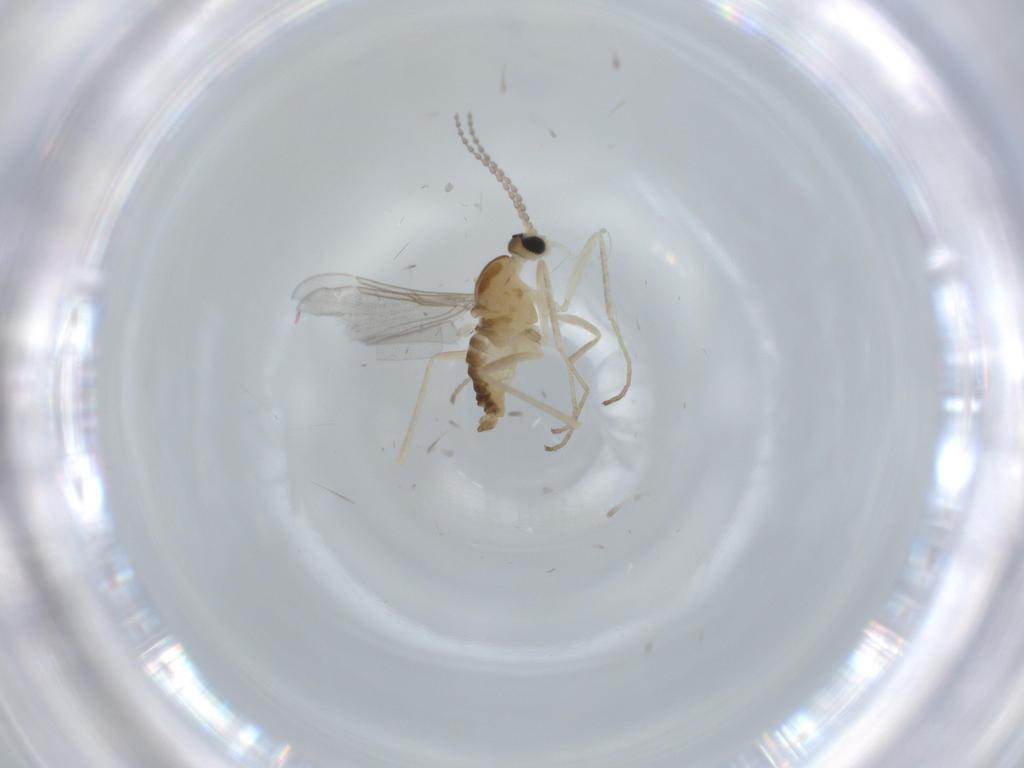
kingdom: Animalia
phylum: Arthropoda
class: Insecta
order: Diptera
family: Cecidomyiidae
